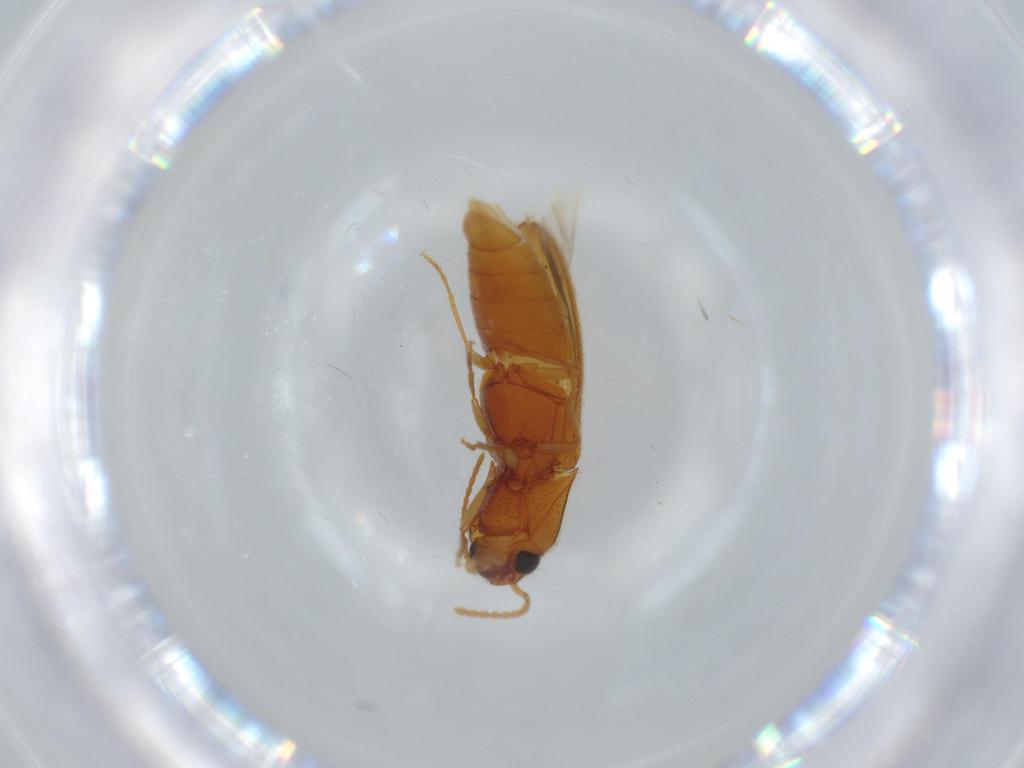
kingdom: Animalia
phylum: Arthropoda
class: Insecta
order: Coleoptera
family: Elateridae
